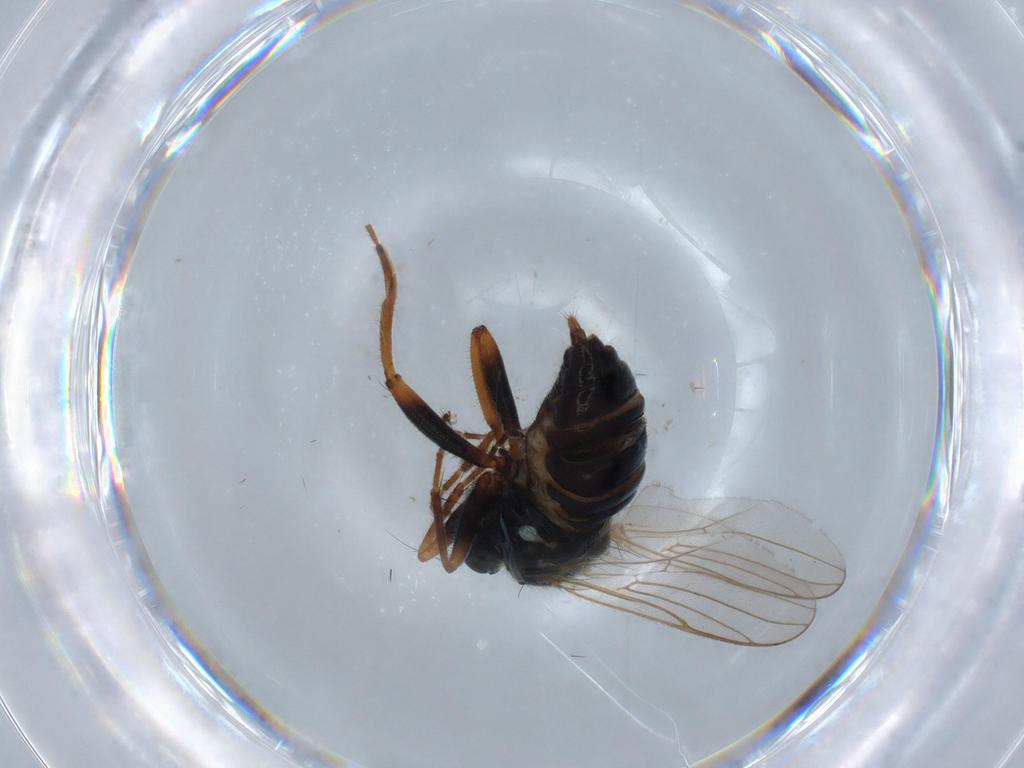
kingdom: Animalia
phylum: Arthropoda
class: Insecta
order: Diptera
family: Hybotidae
